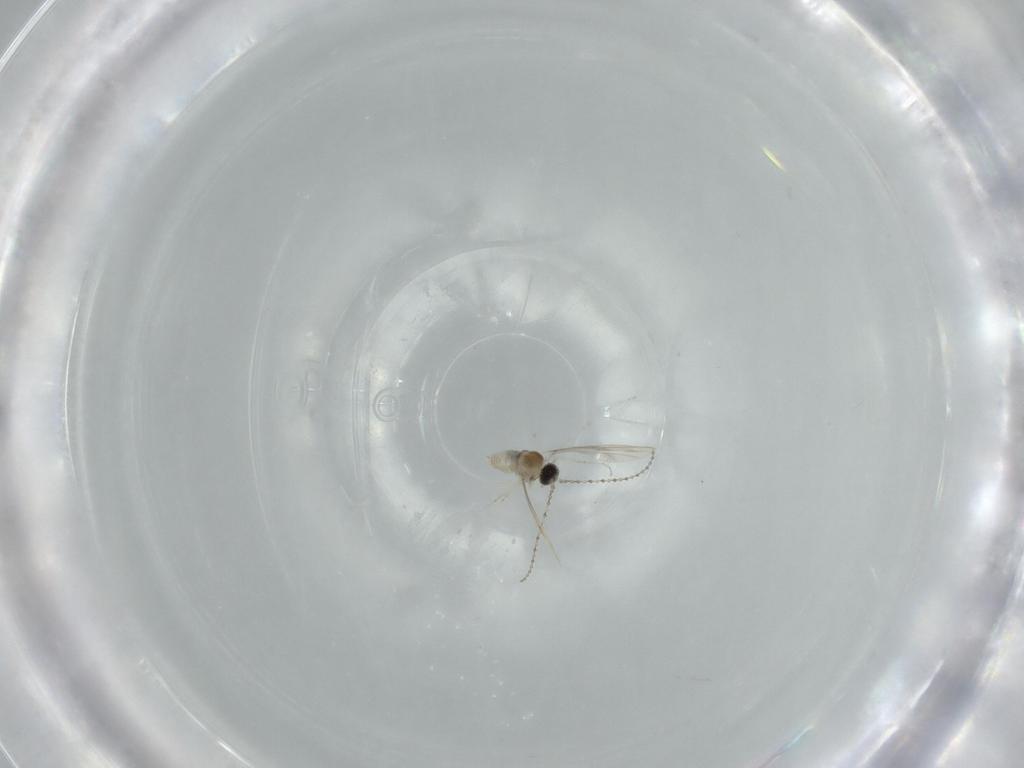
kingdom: Animalia
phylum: Arthropoda
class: Insecta
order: Diptera
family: Cecidomyiidae
